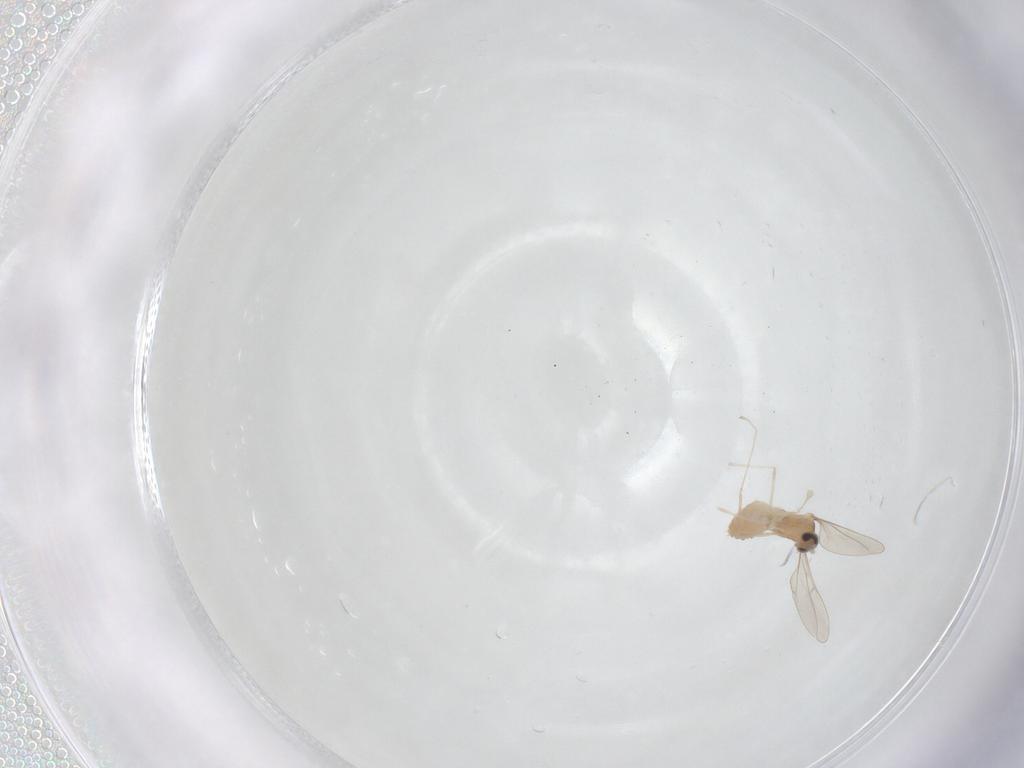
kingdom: Animalia
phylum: Arthropoda
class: Insecta
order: Diptera
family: Cecidomyiidae
